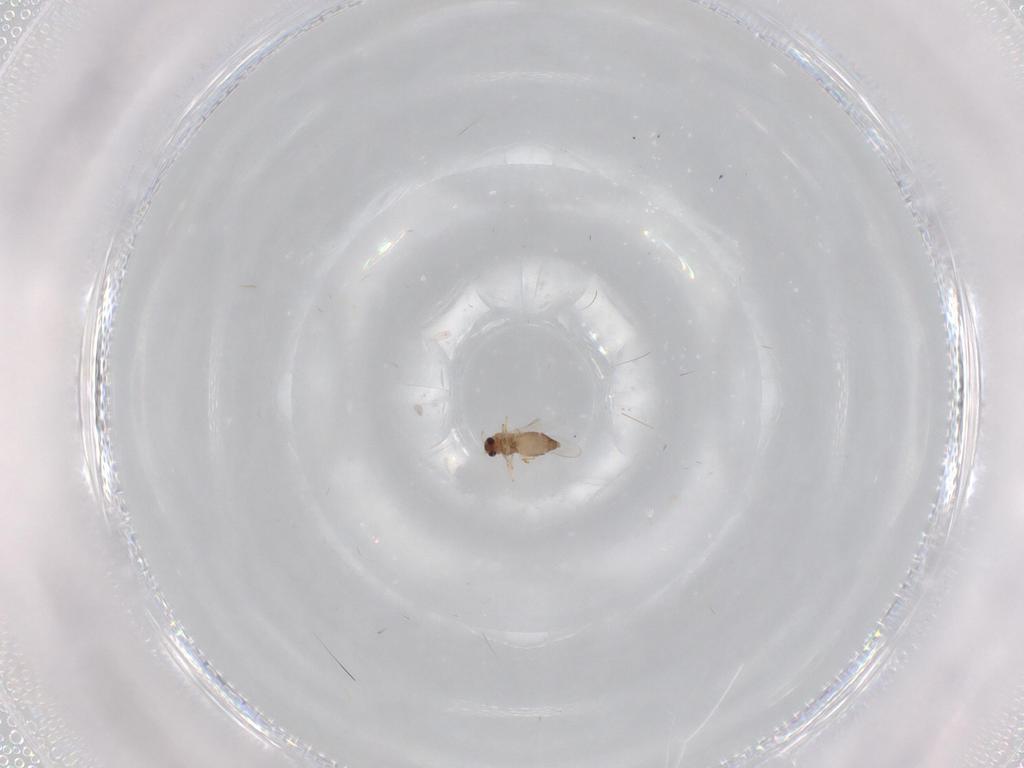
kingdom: Animalia
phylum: Arthropoda
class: Insecta
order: Diptera
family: Chironomidae
